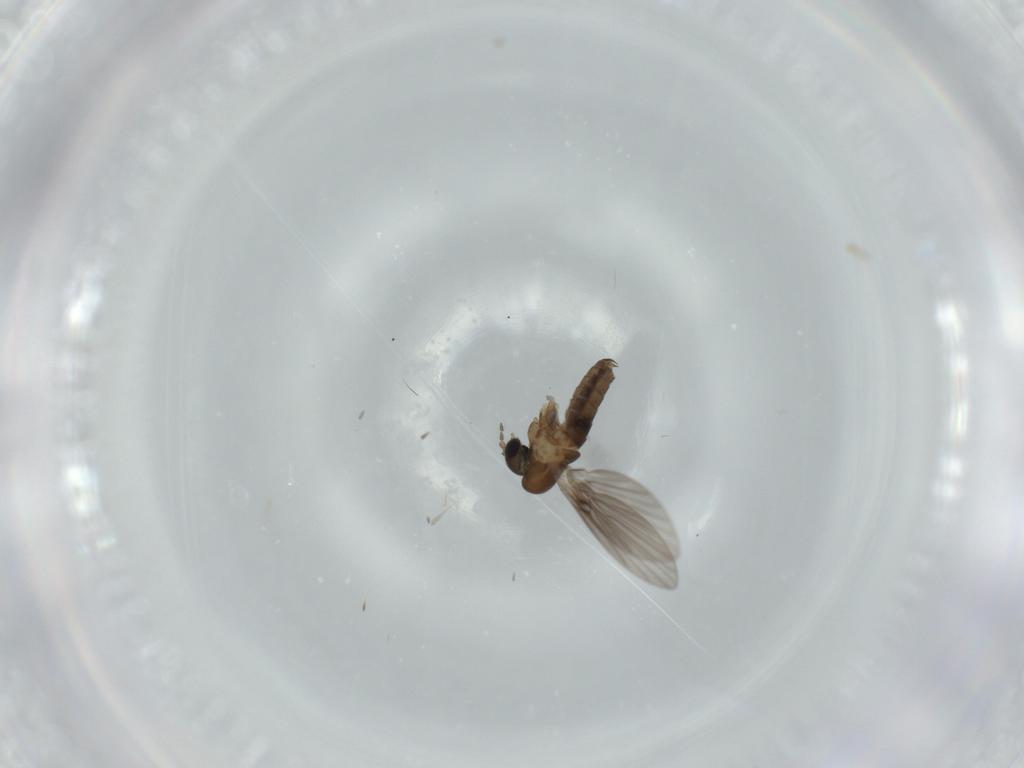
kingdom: Animalia
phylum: Arthropoda
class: Insecta
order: Diptera
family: Psychodidae
